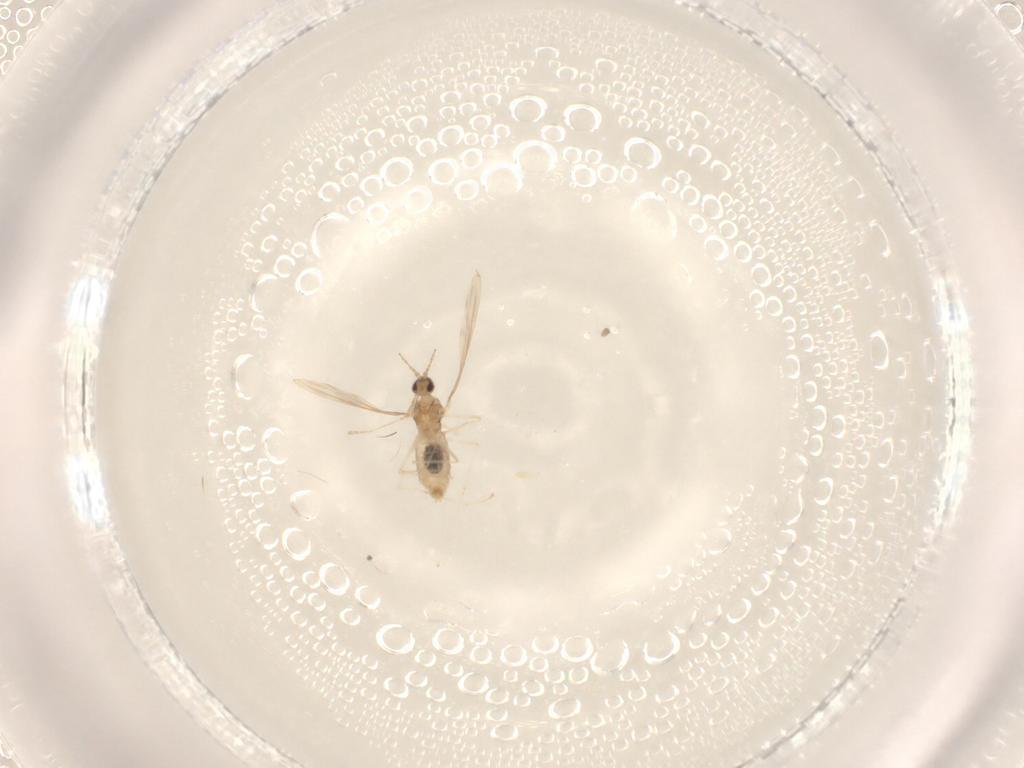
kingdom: Animalia
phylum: Arthropoda
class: Insecta
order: Diptera
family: Cecidomyiidae
